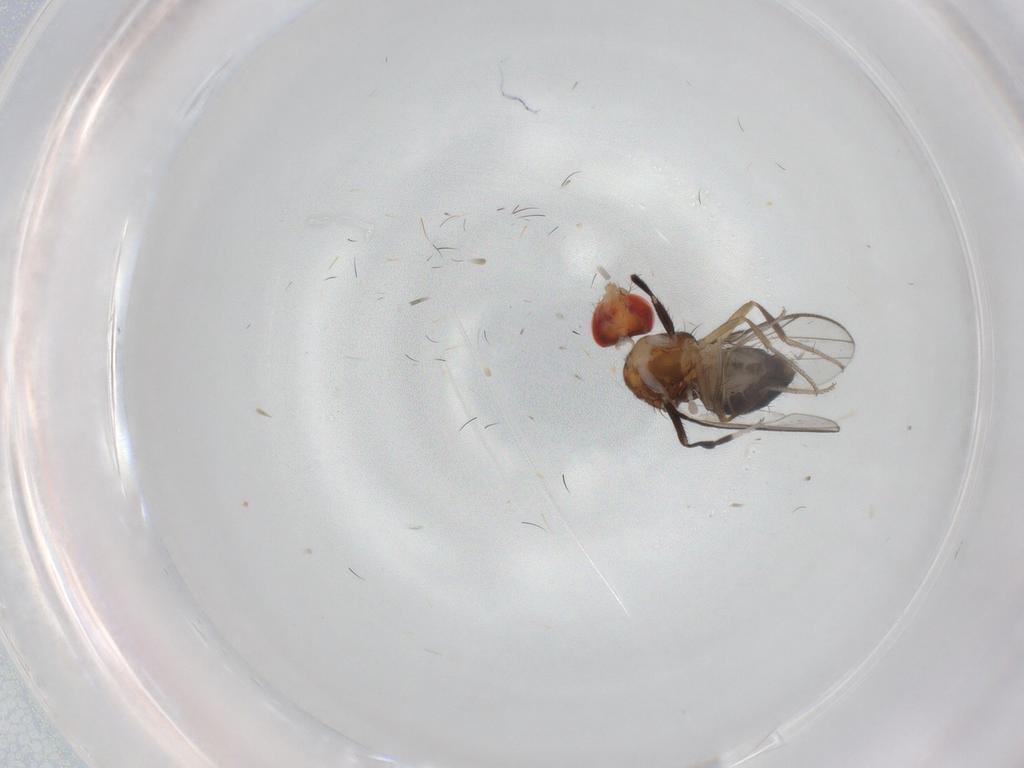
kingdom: Animalia
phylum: Arthropoda
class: Insecta
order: Diptera
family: Drosophilidae
